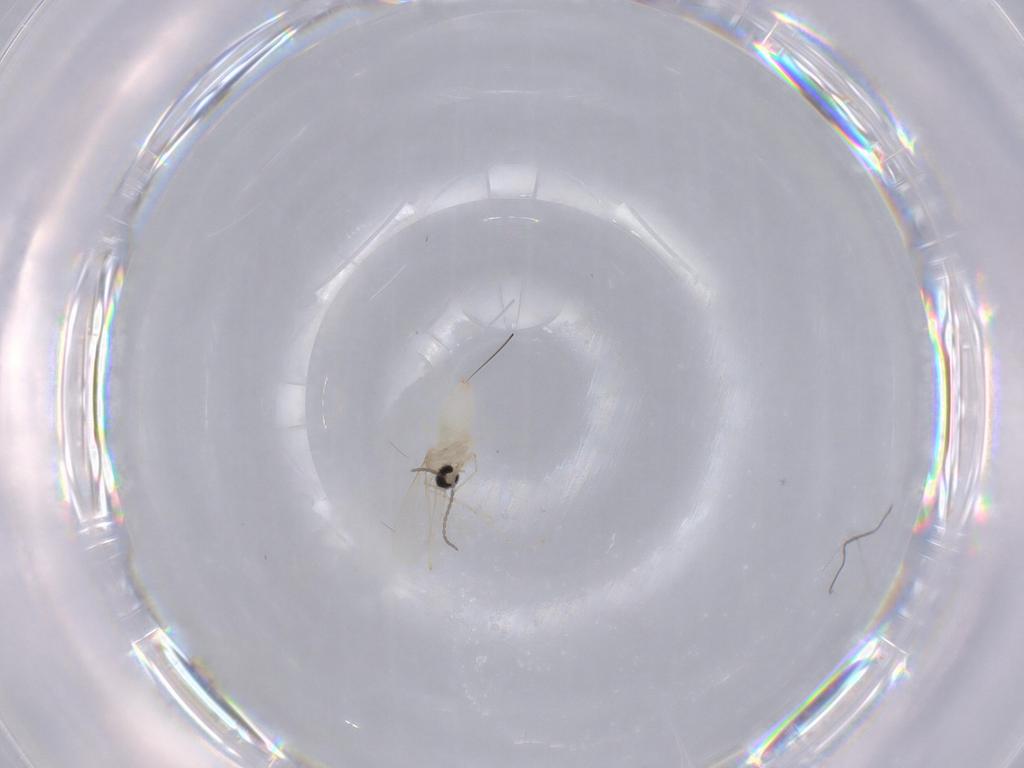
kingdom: Animalia
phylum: Arthropoda
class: Insecta
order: Diptera
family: Cecidomyiidae
